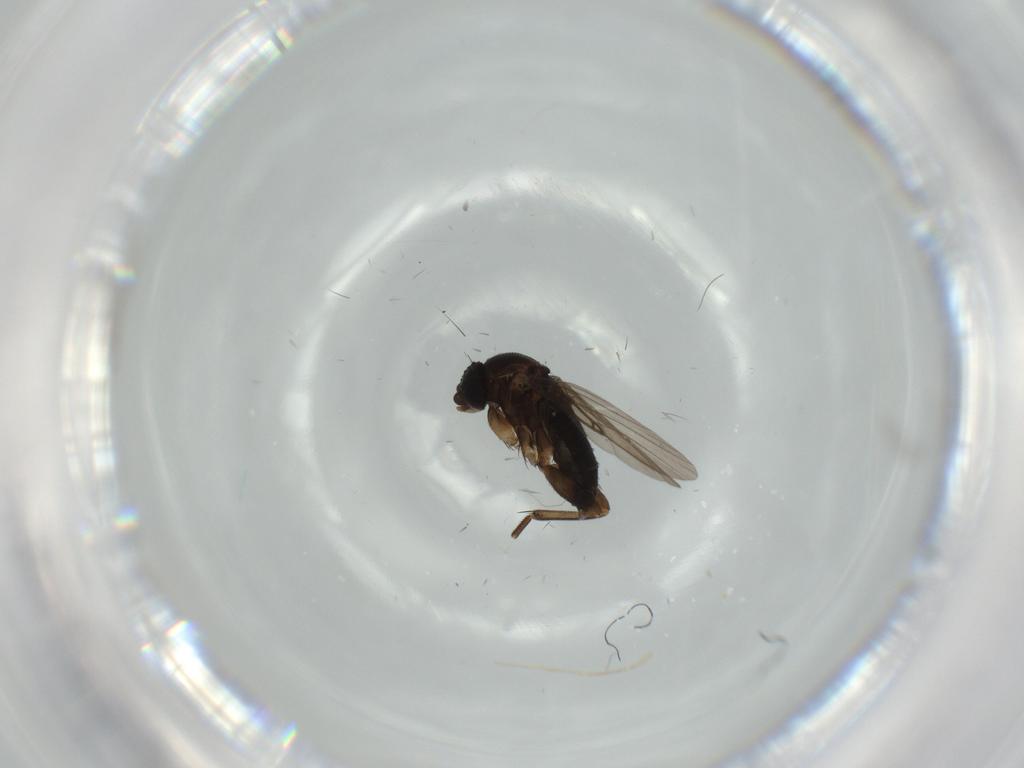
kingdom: Animalia
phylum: Arthropoda
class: Insecta
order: Diptera
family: Phoridae
